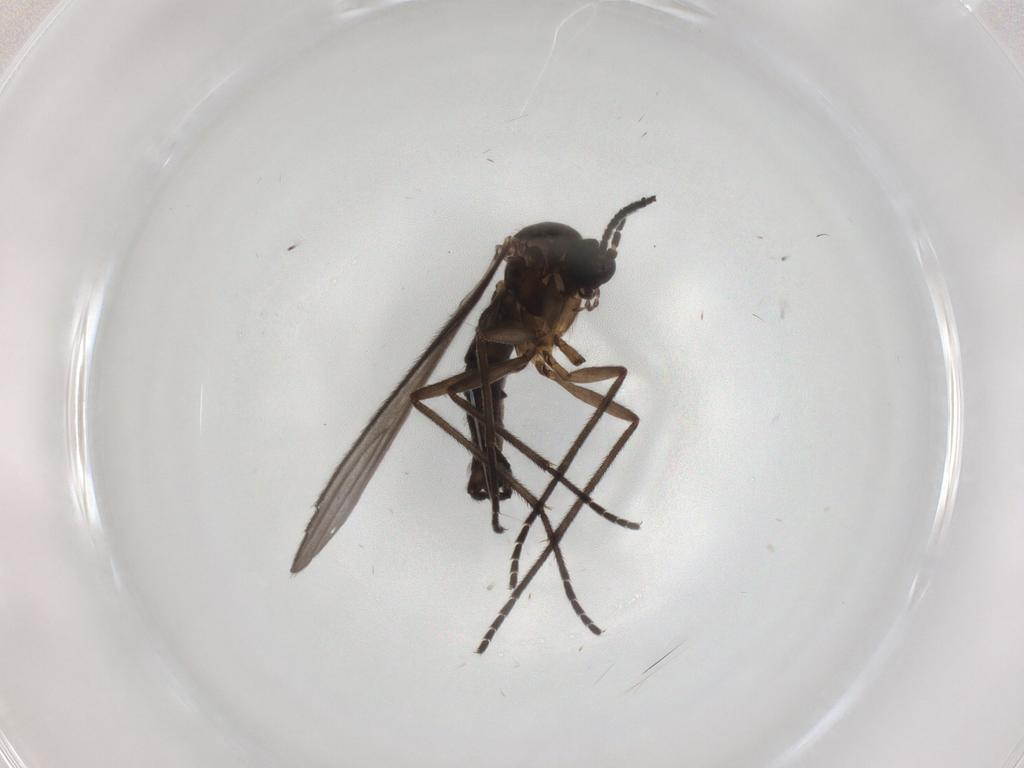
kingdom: Animalia
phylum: Arthropoda
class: Insecta
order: Diptera
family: Sciaridae
